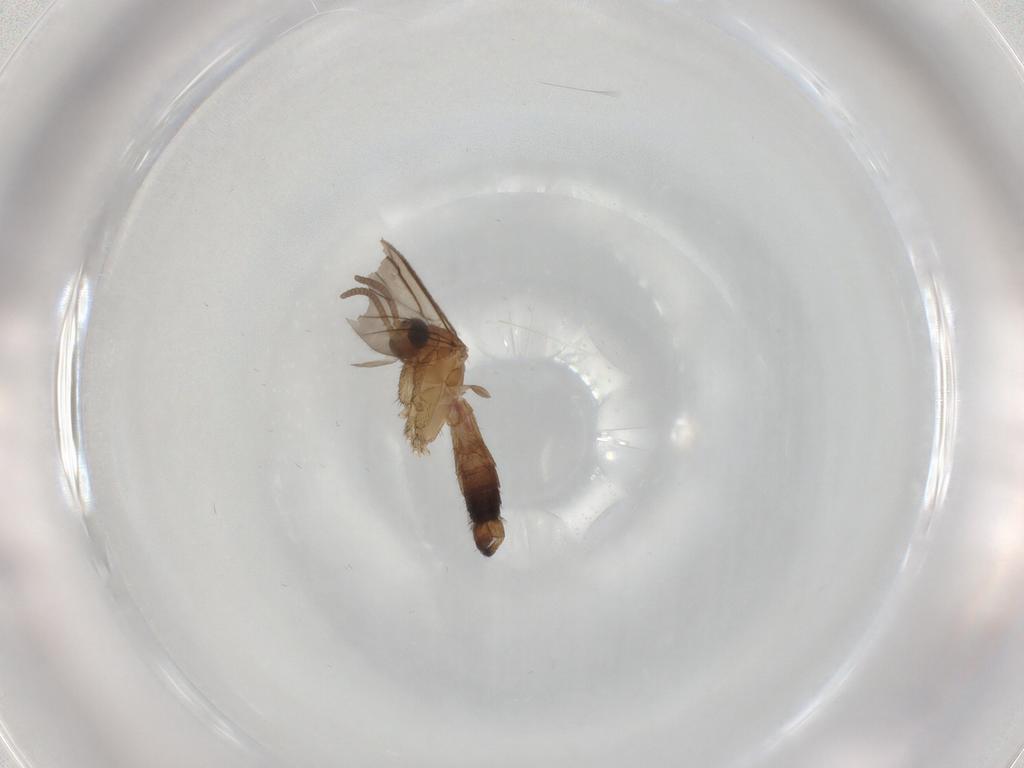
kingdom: Animalia
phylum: Arthropoda
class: Insecta
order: Diptera
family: Keroplatidae
